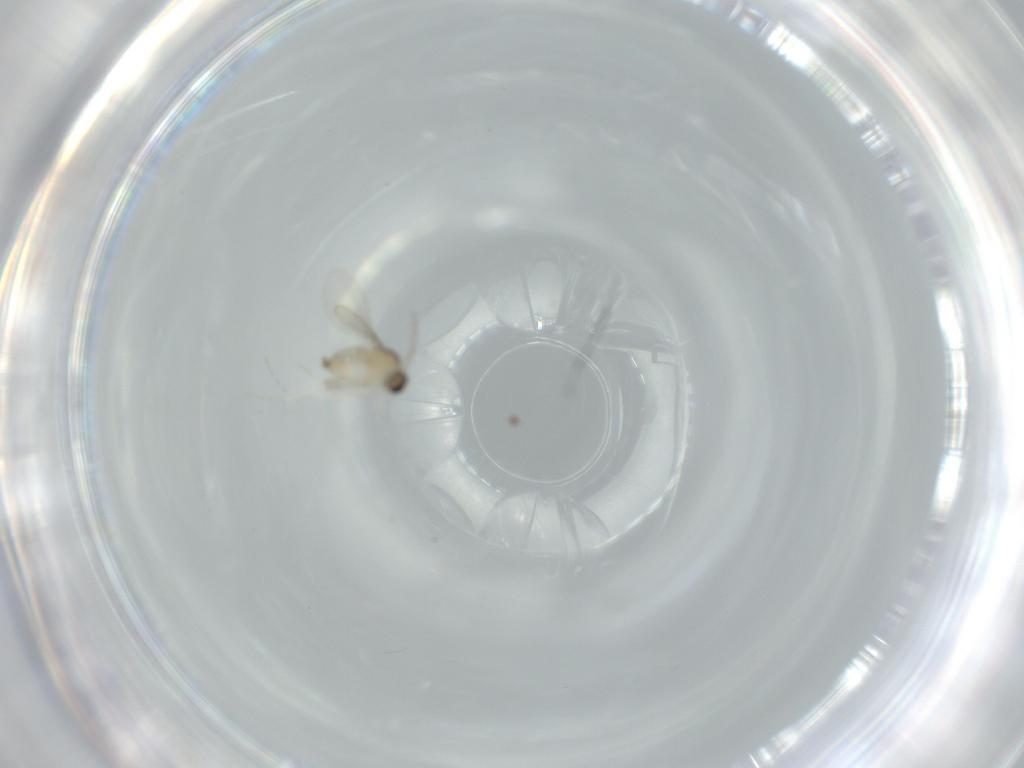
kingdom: Animalia
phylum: Arthropoda
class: Insecta
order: Diptera
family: Cecidomyiidae
